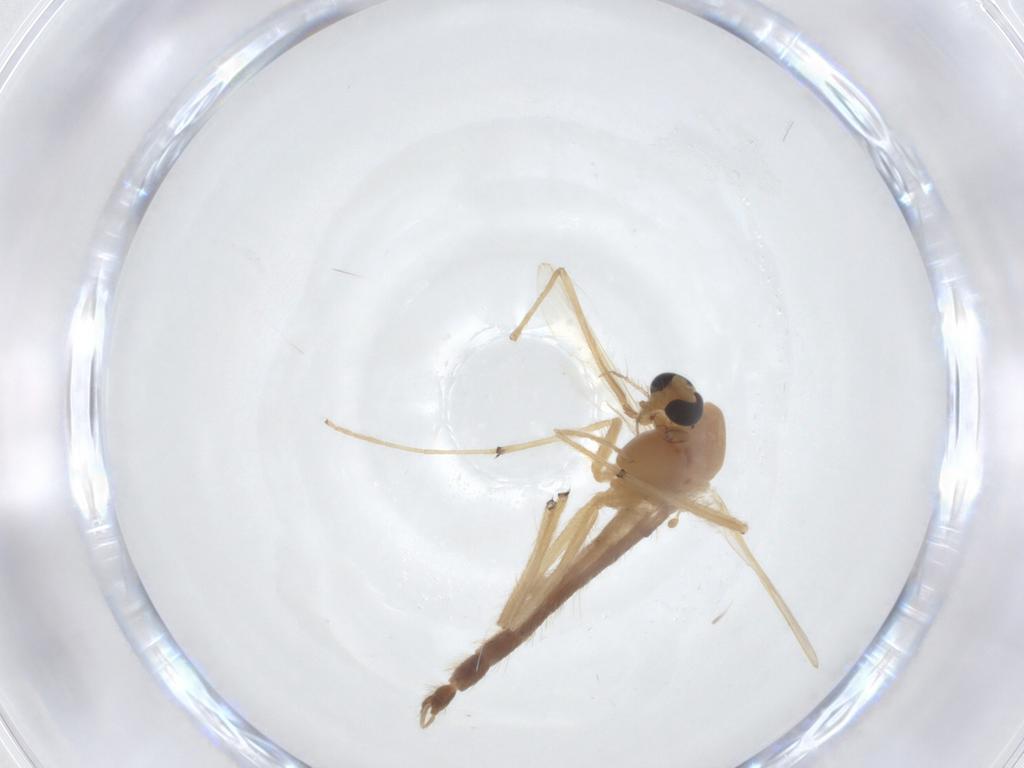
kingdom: Animalia
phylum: Arthropoda
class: Insecta
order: Diptera
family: Chironomidae
